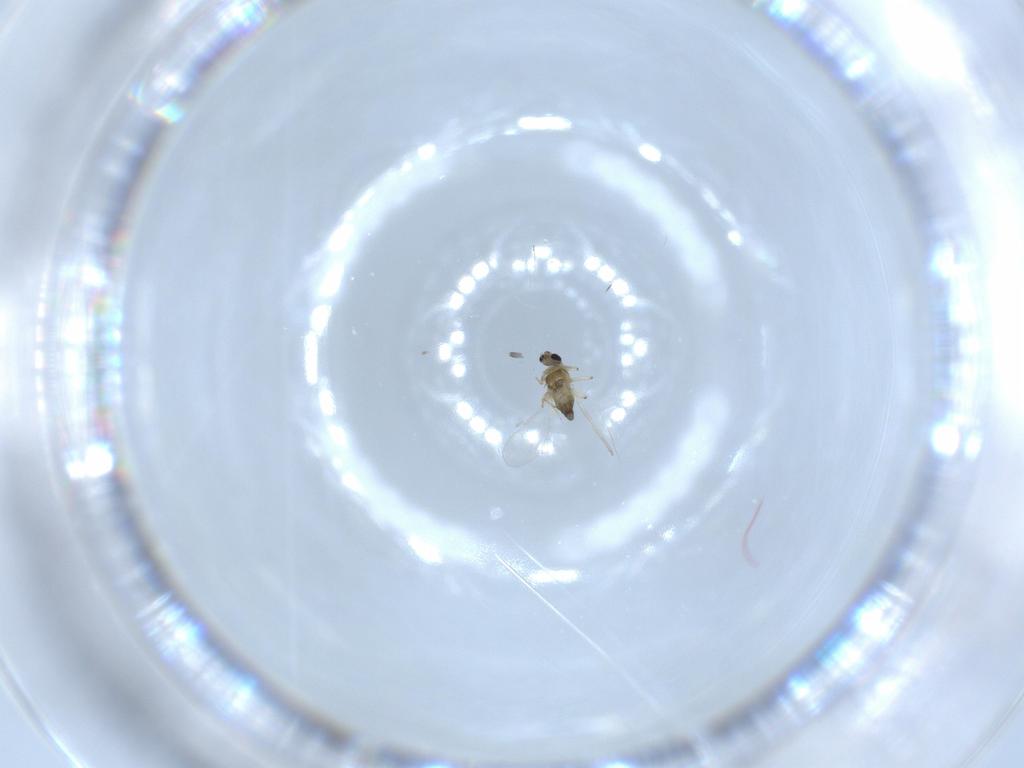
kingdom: Animalia
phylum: Arthropoda
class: Insecta
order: Diptera
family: Chironomidae
